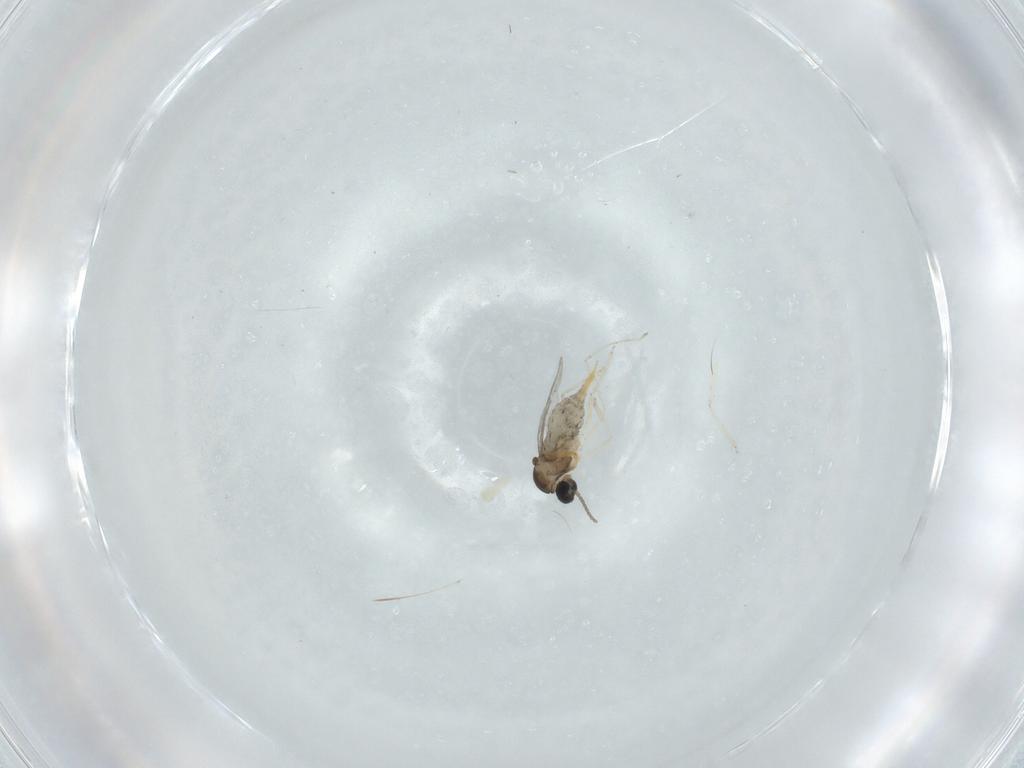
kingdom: Animalia
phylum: Arthropoda
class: Insecta
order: Diptera
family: Cecidomyiidae
